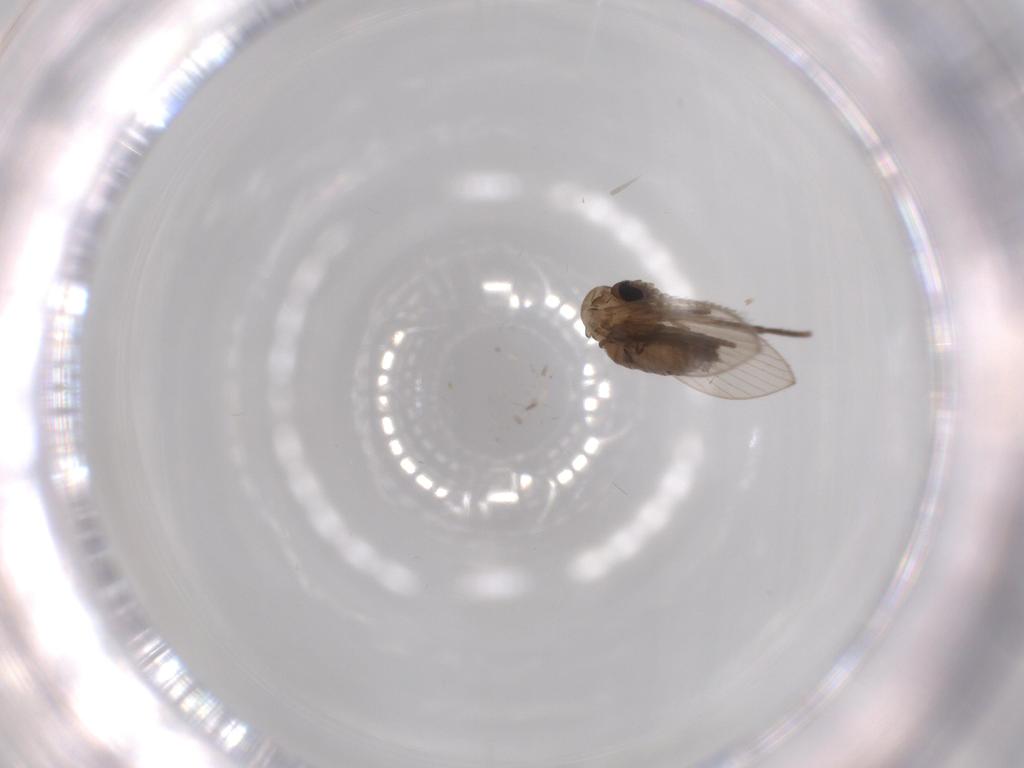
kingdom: Animalia
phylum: Arthropoda
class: Insecta
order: Diptera
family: Psychodidae
